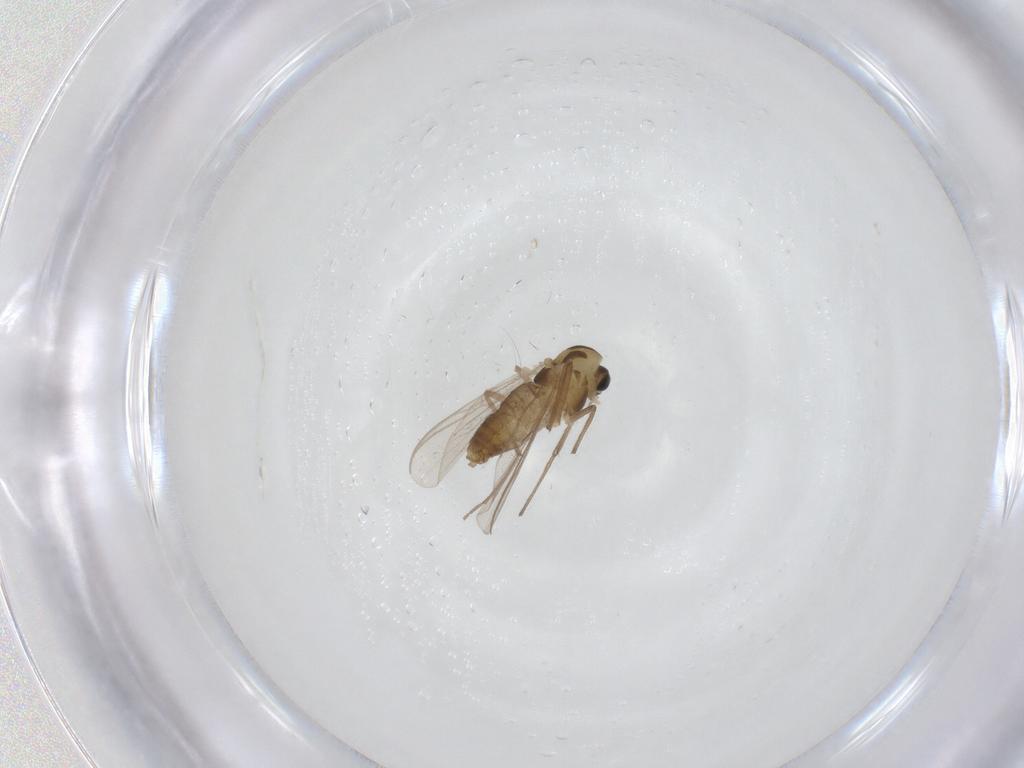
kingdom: Animalia
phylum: Arthropoda
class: Insecta
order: Diptera
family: Chironomidae
